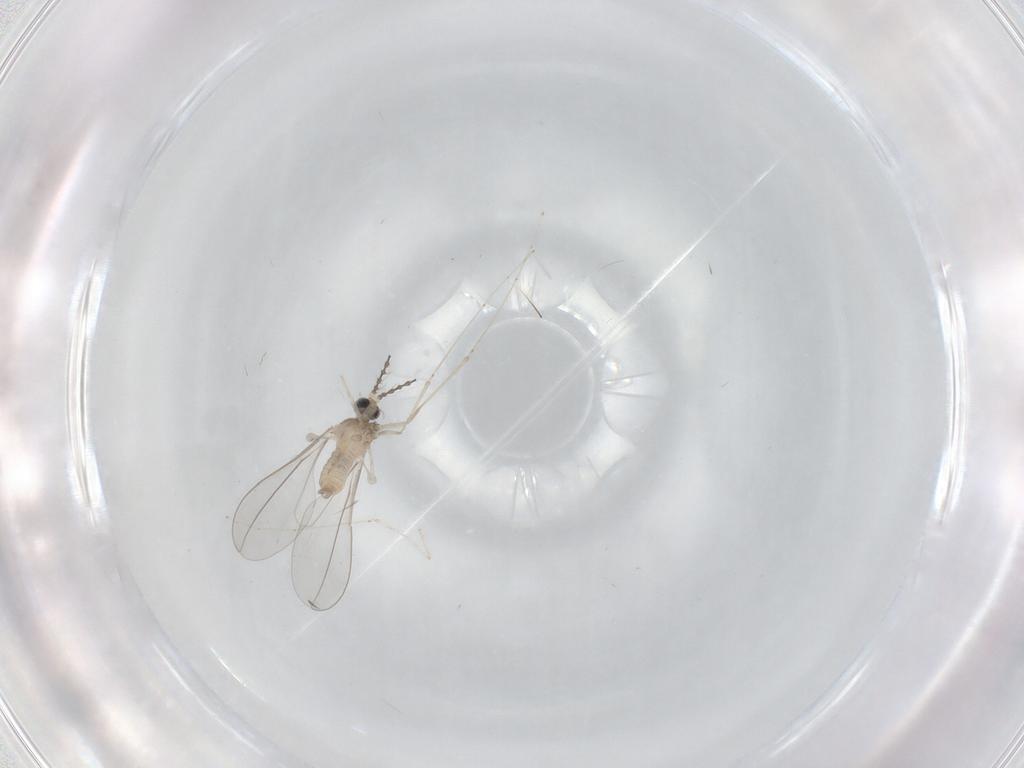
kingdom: Animalia
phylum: Arthropoda
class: Insecta
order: Diptera
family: Cecidomyiidae
